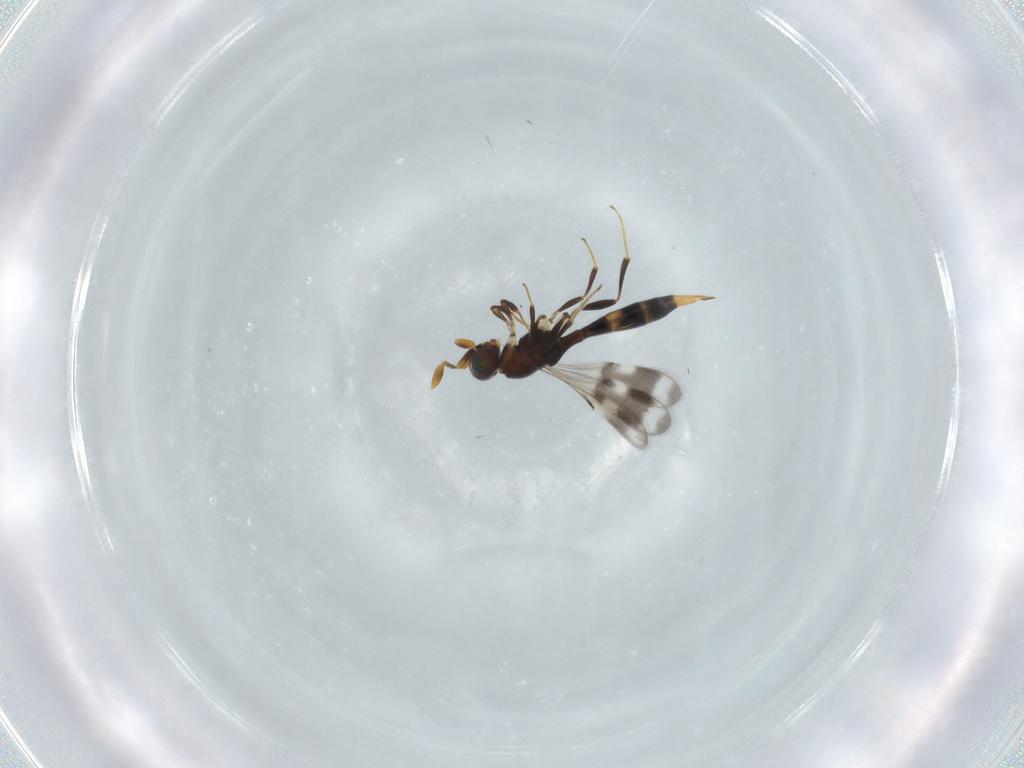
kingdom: Animalia
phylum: Arthropoda
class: Insecta
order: Hymenoptera
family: Scelionidae
